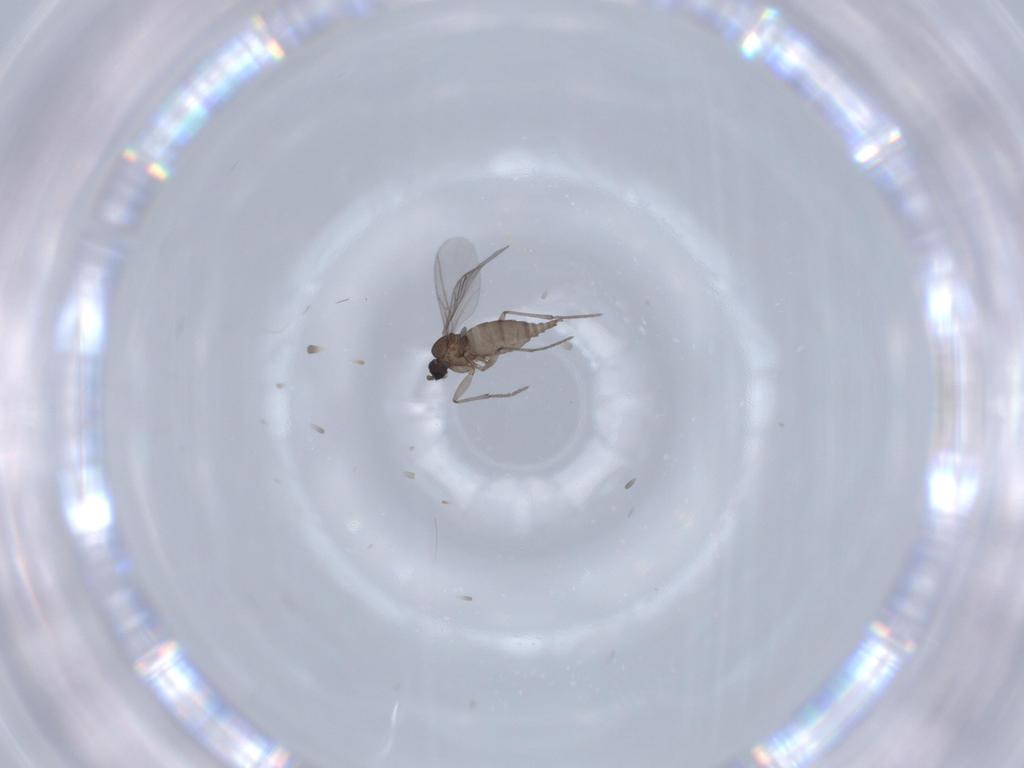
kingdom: Animalia
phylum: Arthropoda
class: Insecta
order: Diptera
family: Sciaridae
